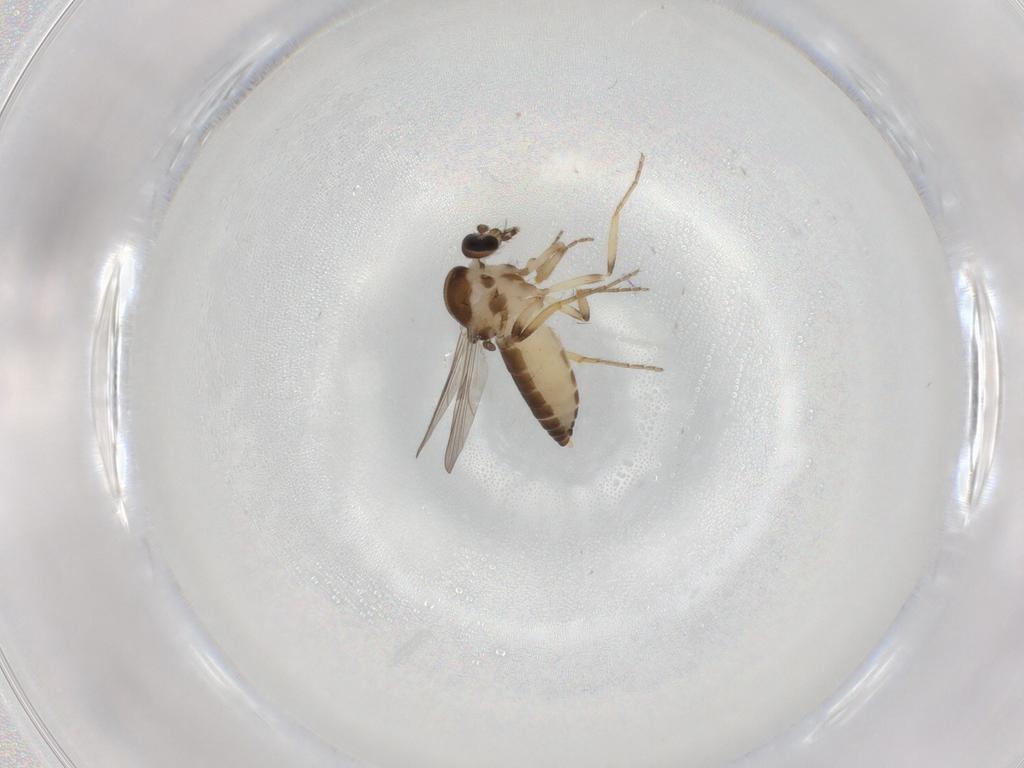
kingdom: Animalia
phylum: Arthropoda
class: Insecta
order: Diptera
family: Ceratopogonidae
